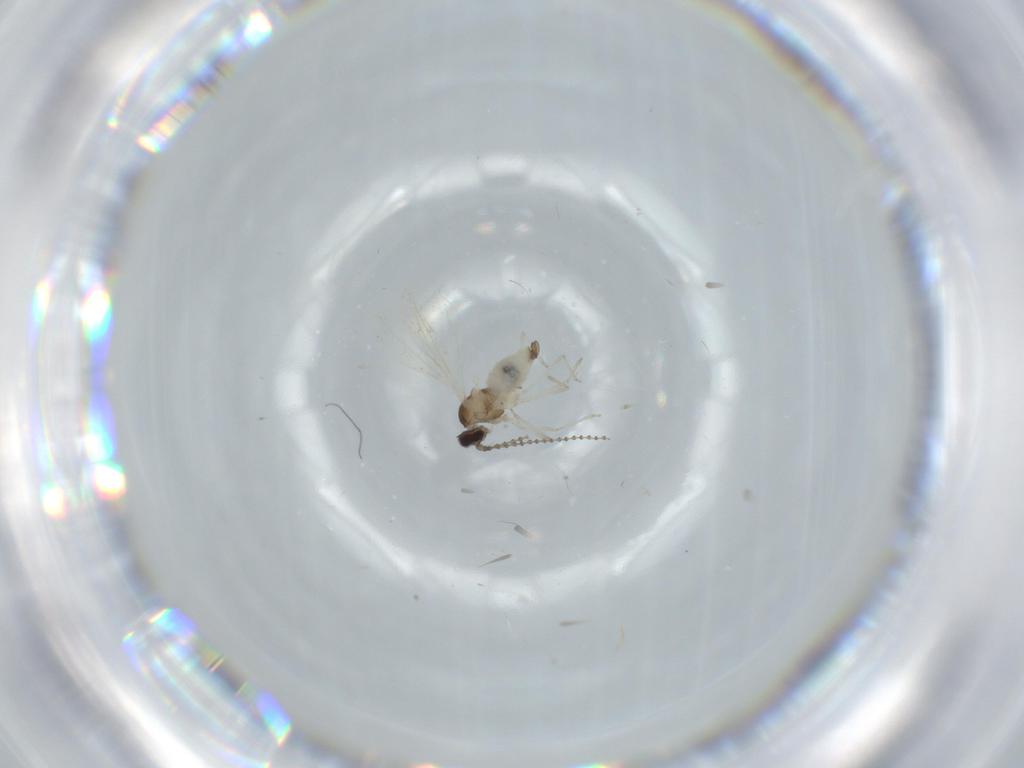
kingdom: Animalia
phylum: Arthropoda
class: Insecta
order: Diptera
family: Cecidomyiidae
